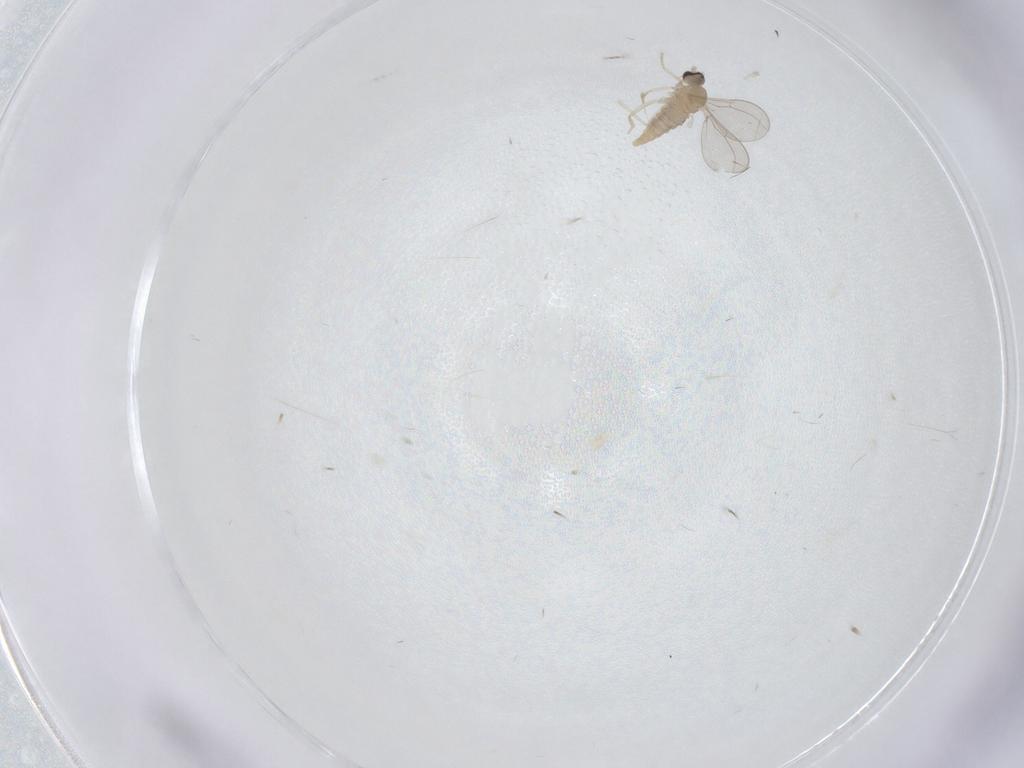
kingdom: Animalia
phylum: Arthropoda
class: Insecta
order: Diptera
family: Cecidomyiidae
